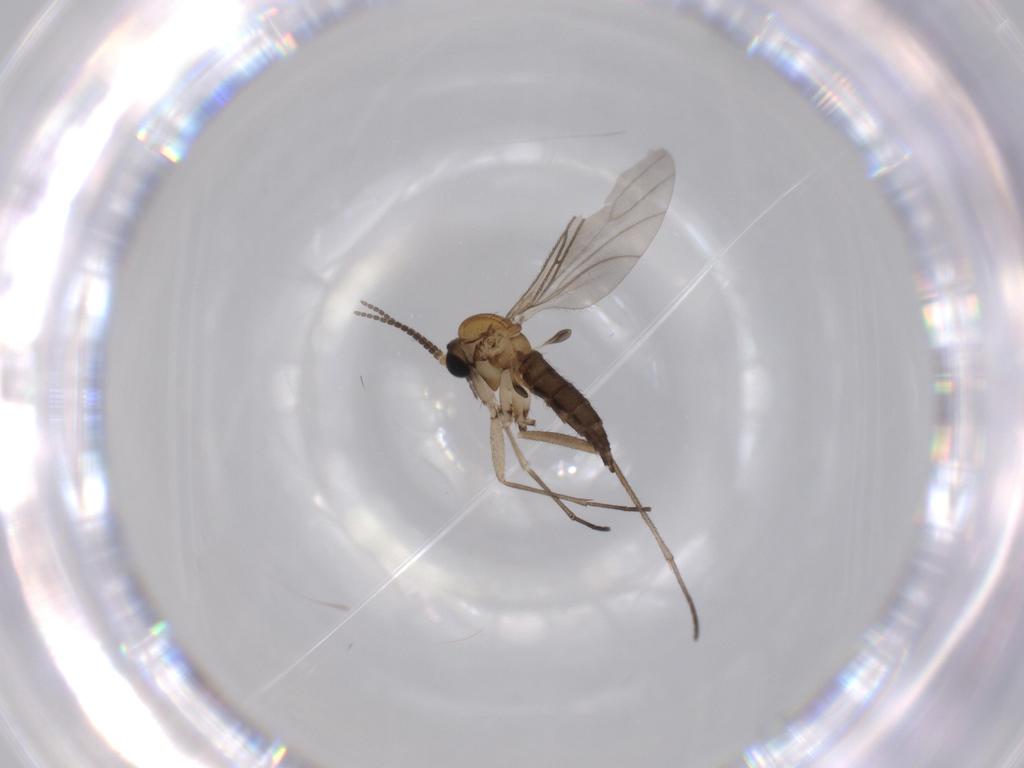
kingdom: Animalia
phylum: Arthropoda
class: Insecta
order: Diptera
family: Sciaridae
